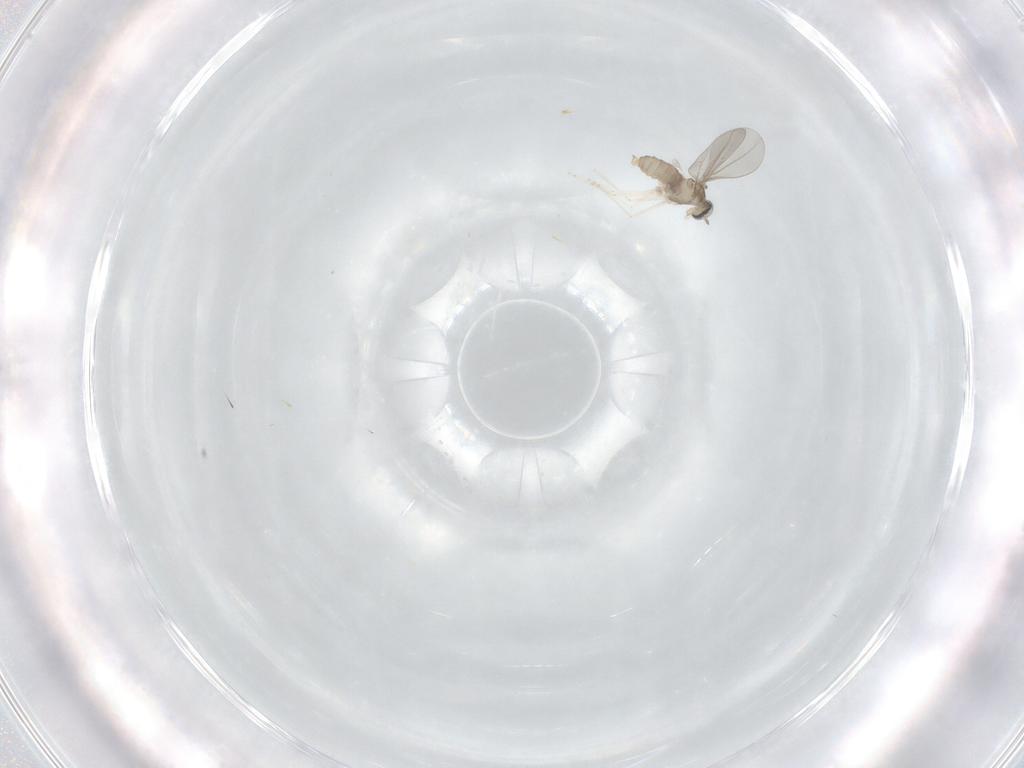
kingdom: Animalia
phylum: Arthropoda
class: Insecta
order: Diptera
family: Cecidomyiidae
